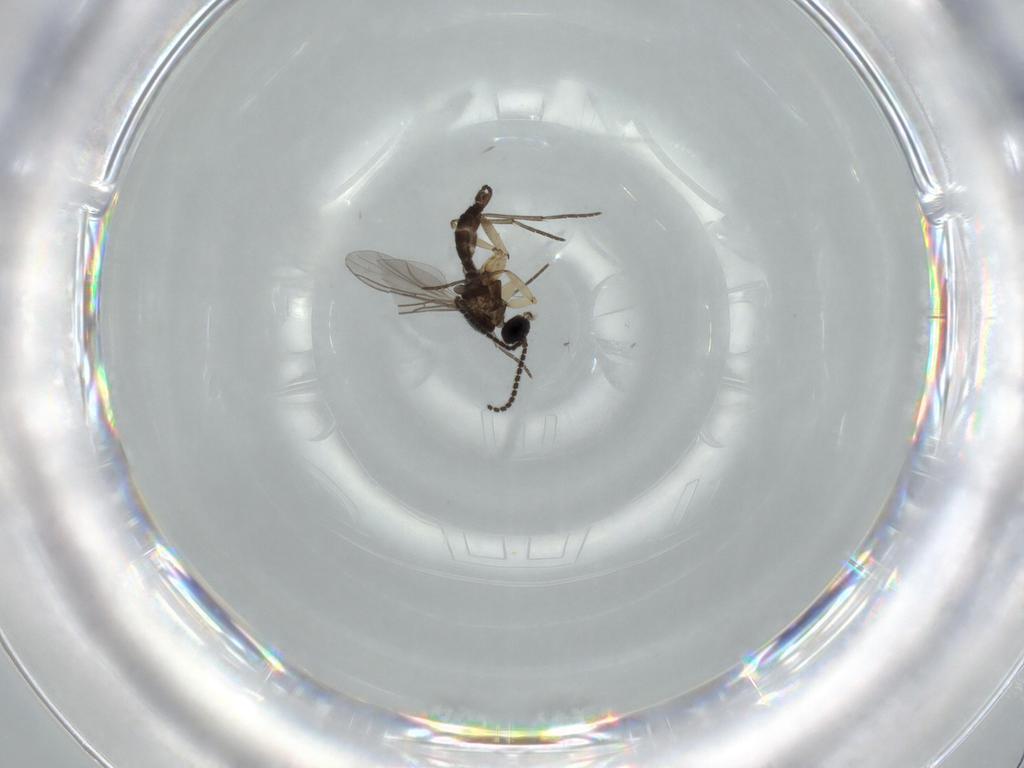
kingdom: Animalia
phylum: Arthropoda
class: Insecta
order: Diptera
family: Sciaridae
